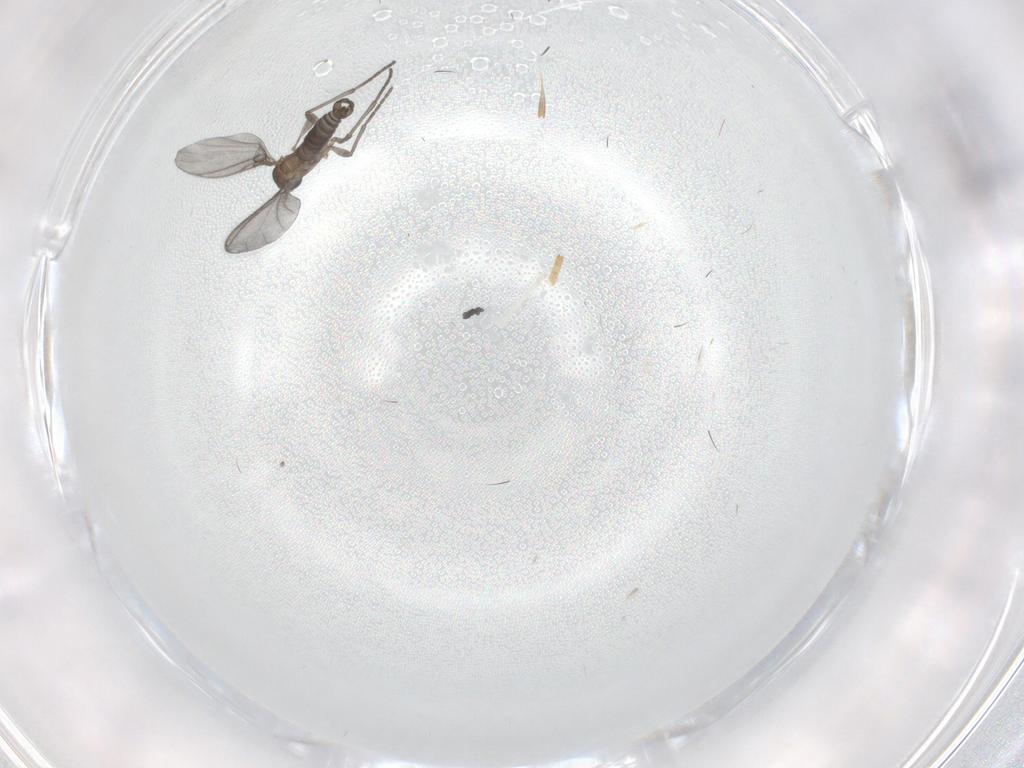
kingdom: Animalia
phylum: Arthropoda
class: Insecta
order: Diptera
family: Sciaridae
